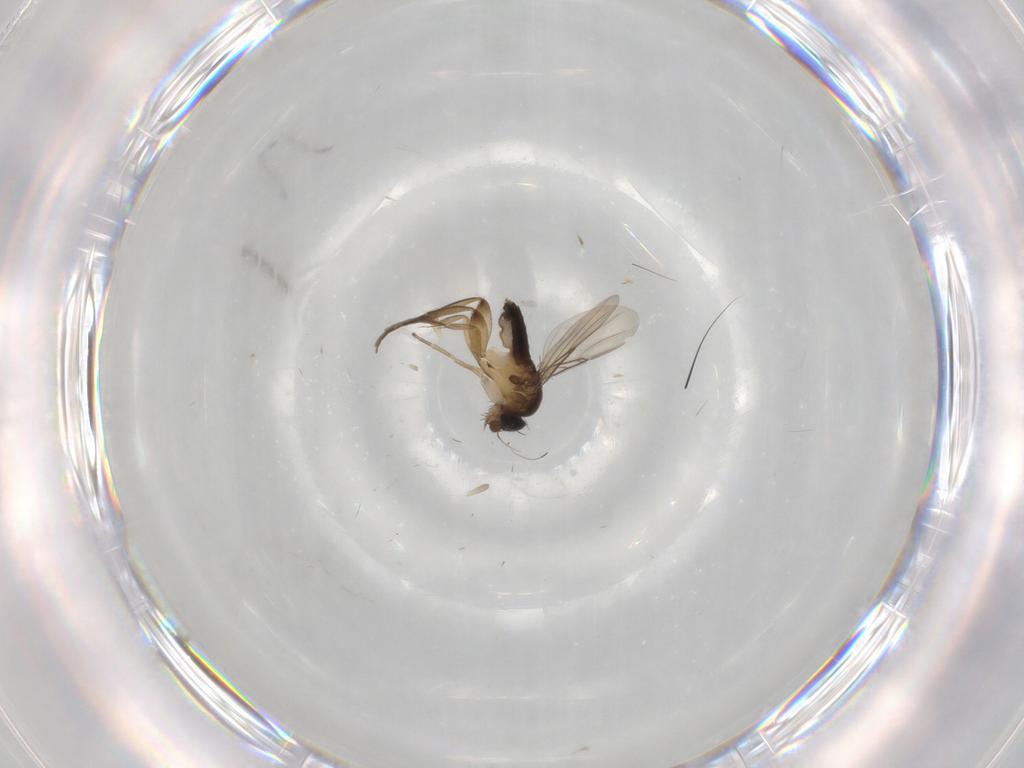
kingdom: Animalia
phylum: Arthropoda
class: Insecta
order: Diptera
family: Phoridae
